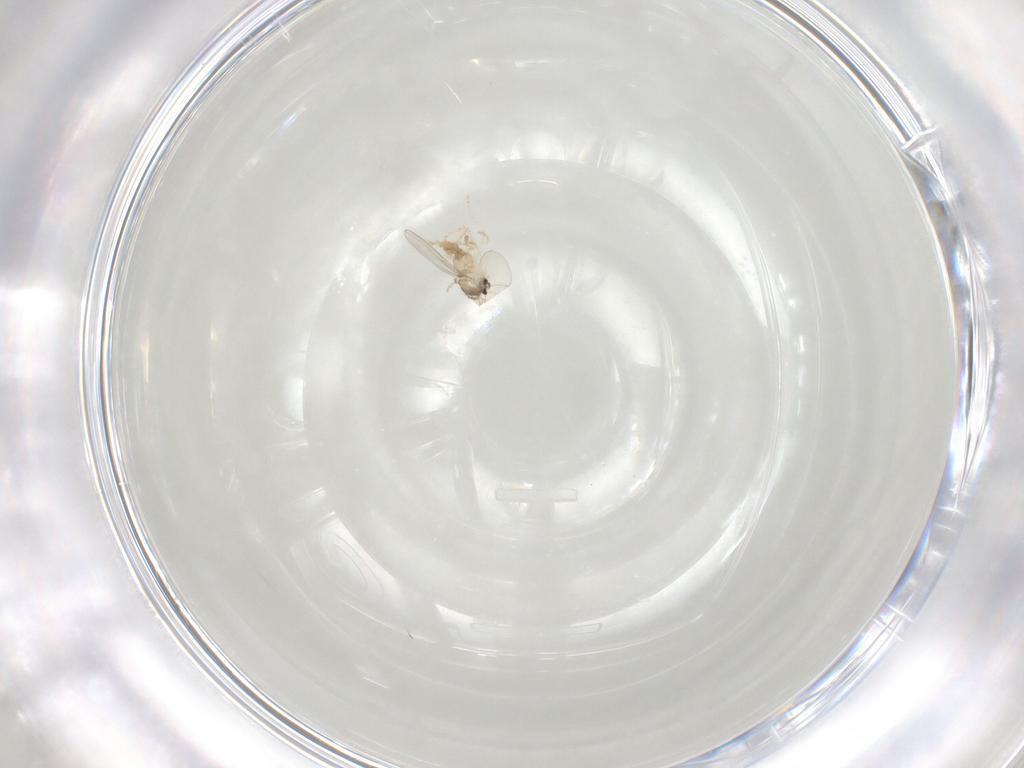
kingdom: Animalia
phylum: Arthropoda
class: Insecta
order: Diptera
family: Cecidomyiidae
